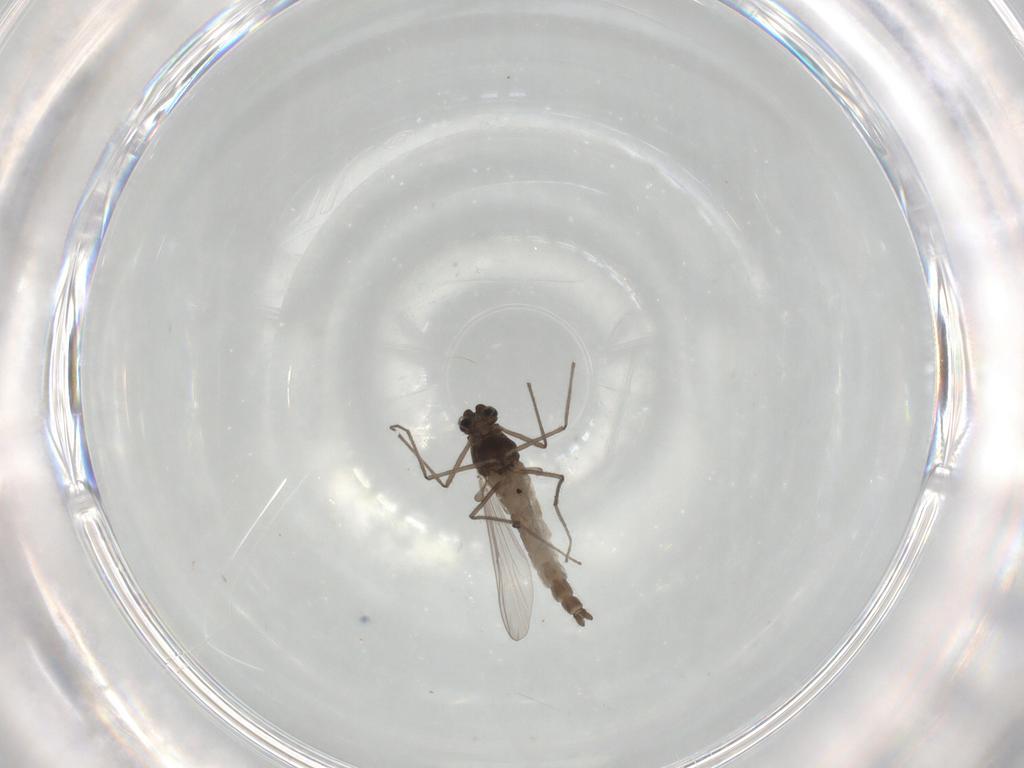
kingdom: Animalia
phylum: Arthropoda
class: Insecta
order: Diptera
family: Chironomidae
